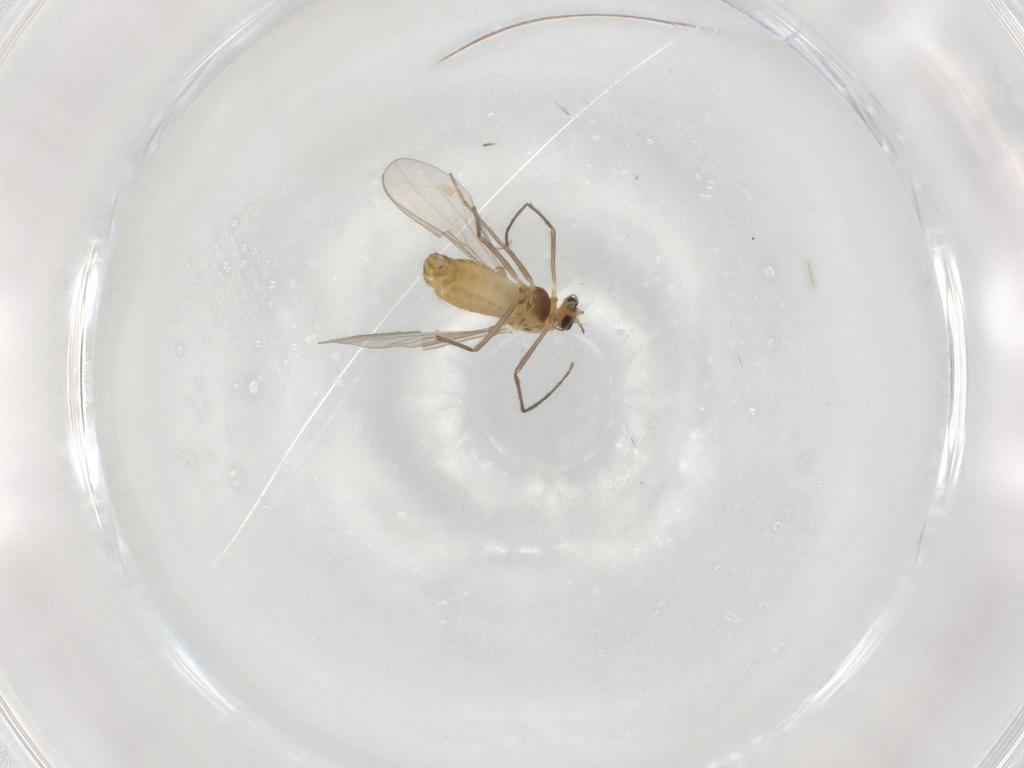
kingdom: Animalia
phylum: Arthropoda
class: Insecta
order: Diptera
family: Chironomidae
